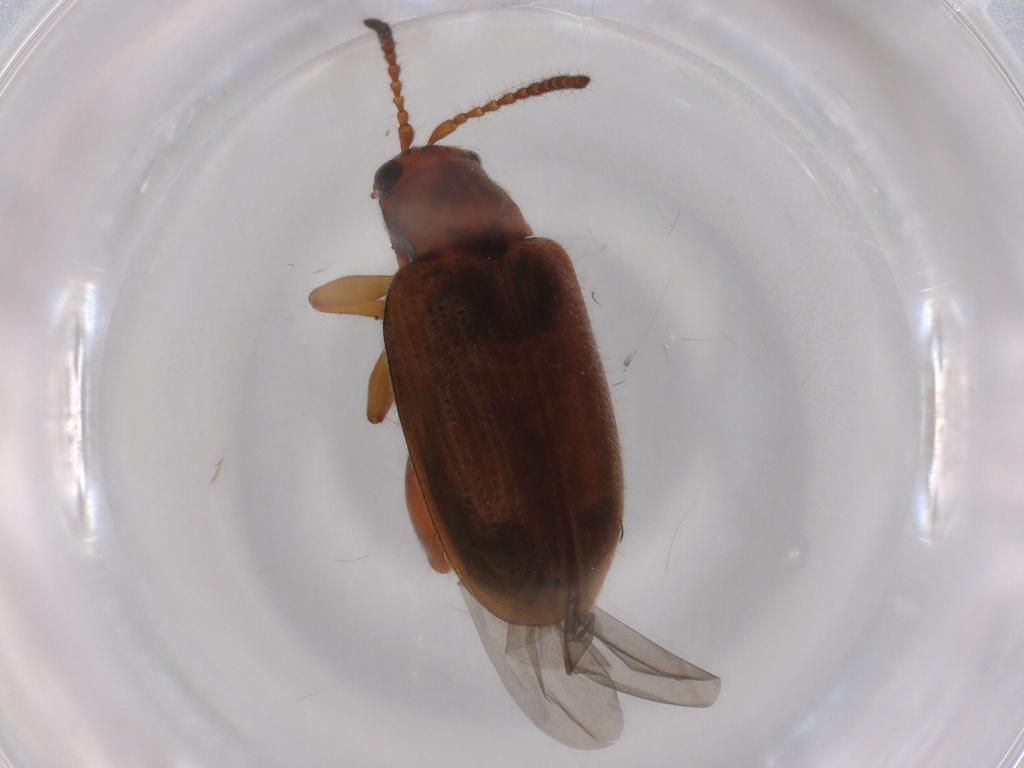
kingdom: Animalia
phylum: Arthropoda
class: Insecta
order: Coleoptera
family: Chrysomelidae
